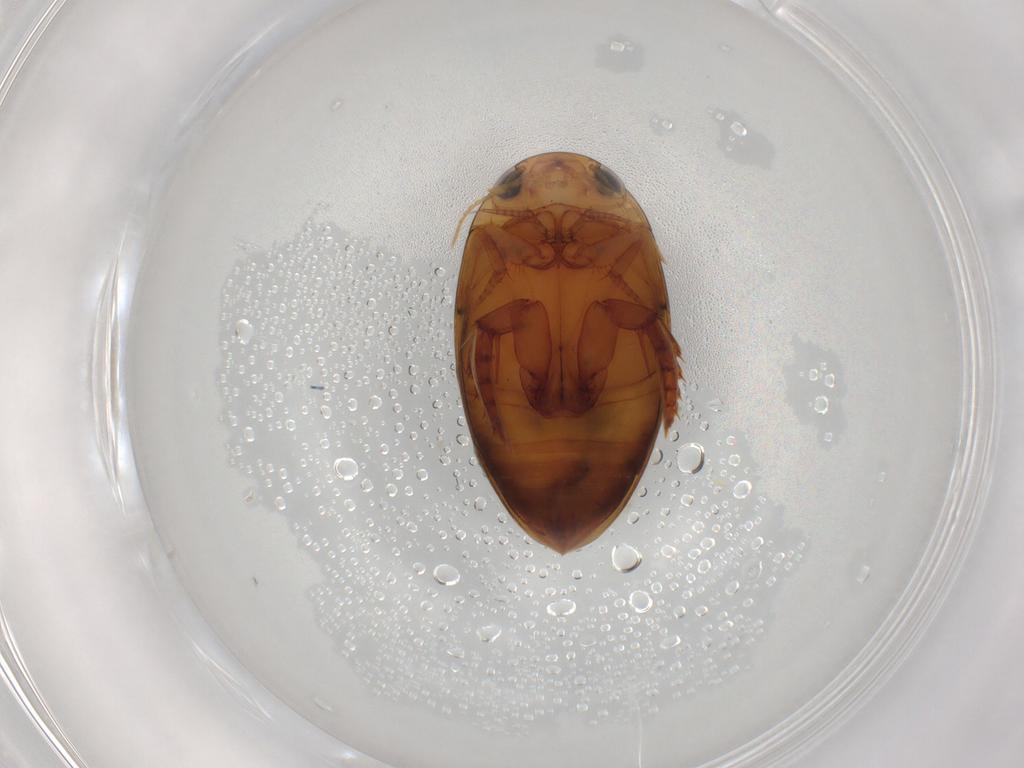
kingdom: Animalia
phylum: Arthropoda
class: Insecta
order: Coleoptera
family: Dytiscidae
